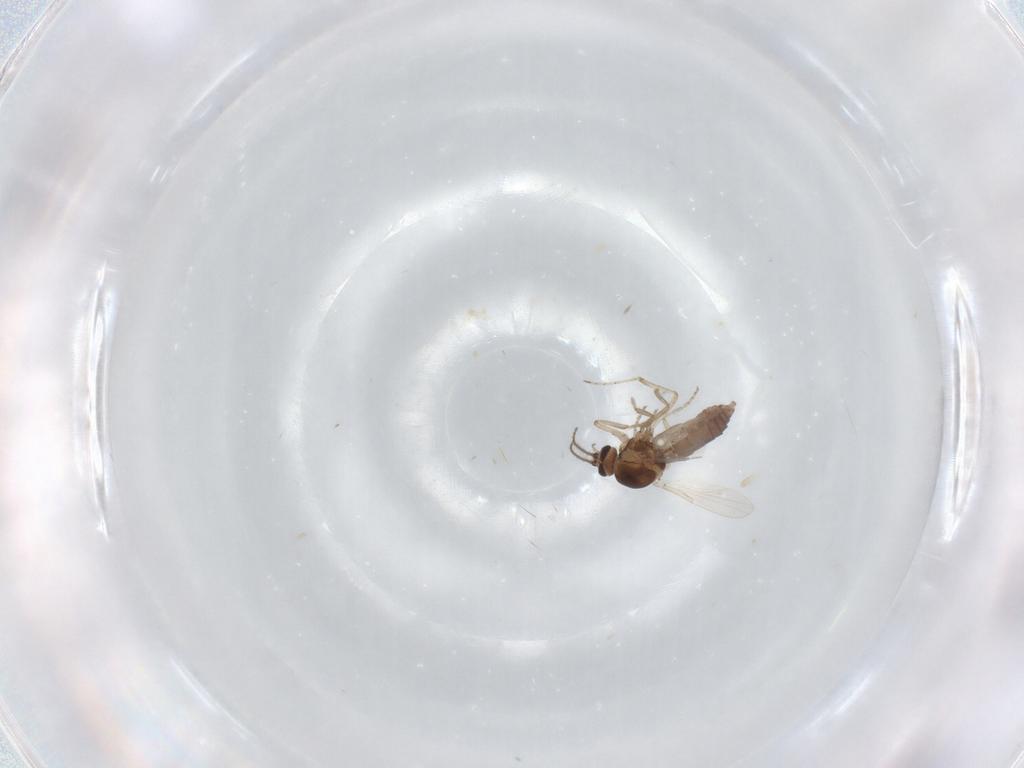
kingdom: Animalia
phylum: Arthropoda
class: Insecta
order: Diptera
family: Ceratopogonidae
